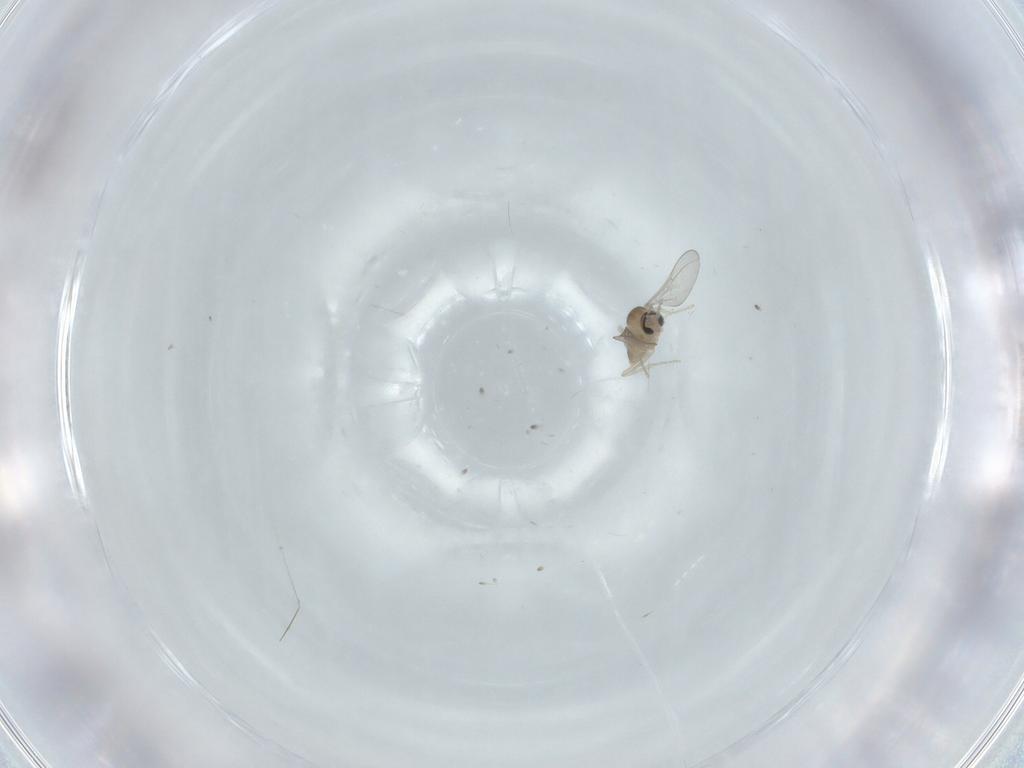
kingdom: Animalia
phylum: Arthropoda
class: Insecta
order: Diptera
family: Cecidomyiidae
